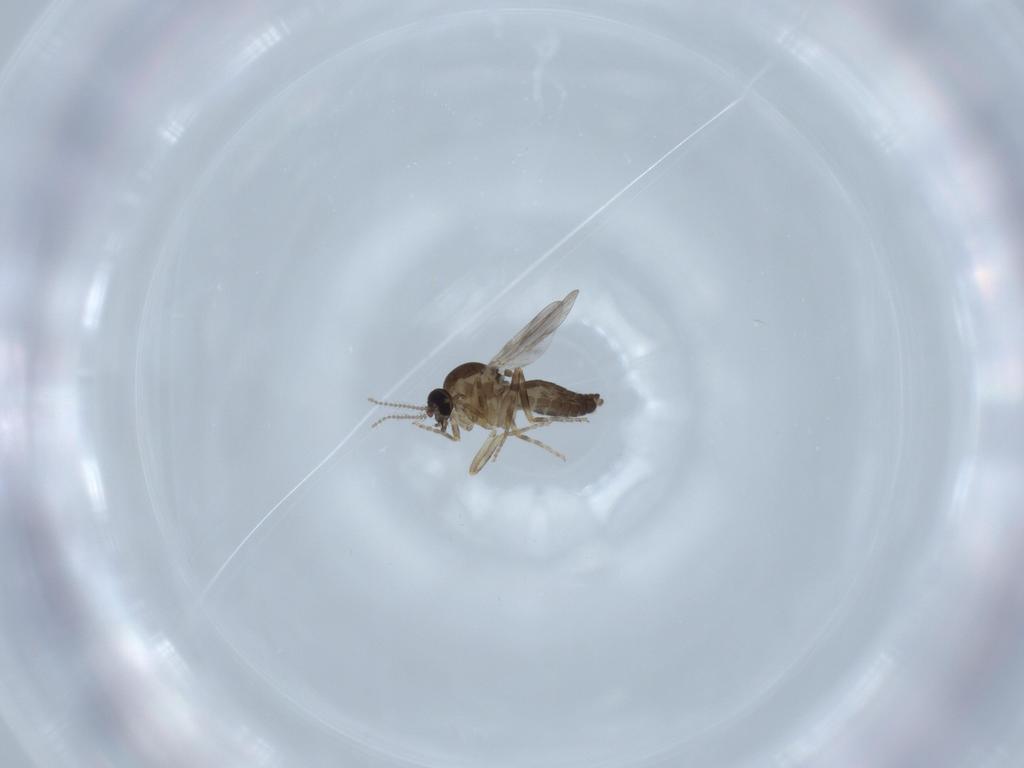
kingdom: Animalia
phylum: Arthropoda
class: Insecta
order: Diptera
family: Ceratopogonidae
